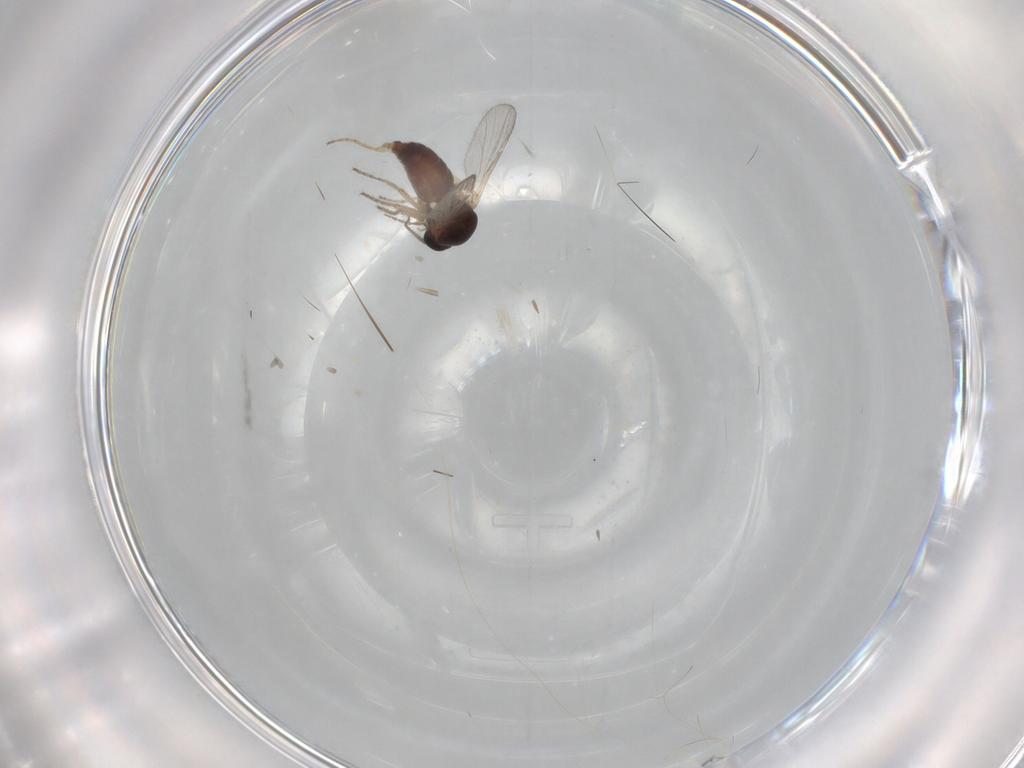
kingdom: Animalia
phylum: Arthropoda
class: Insecta
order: Diptera
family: Ceratopogonidae
